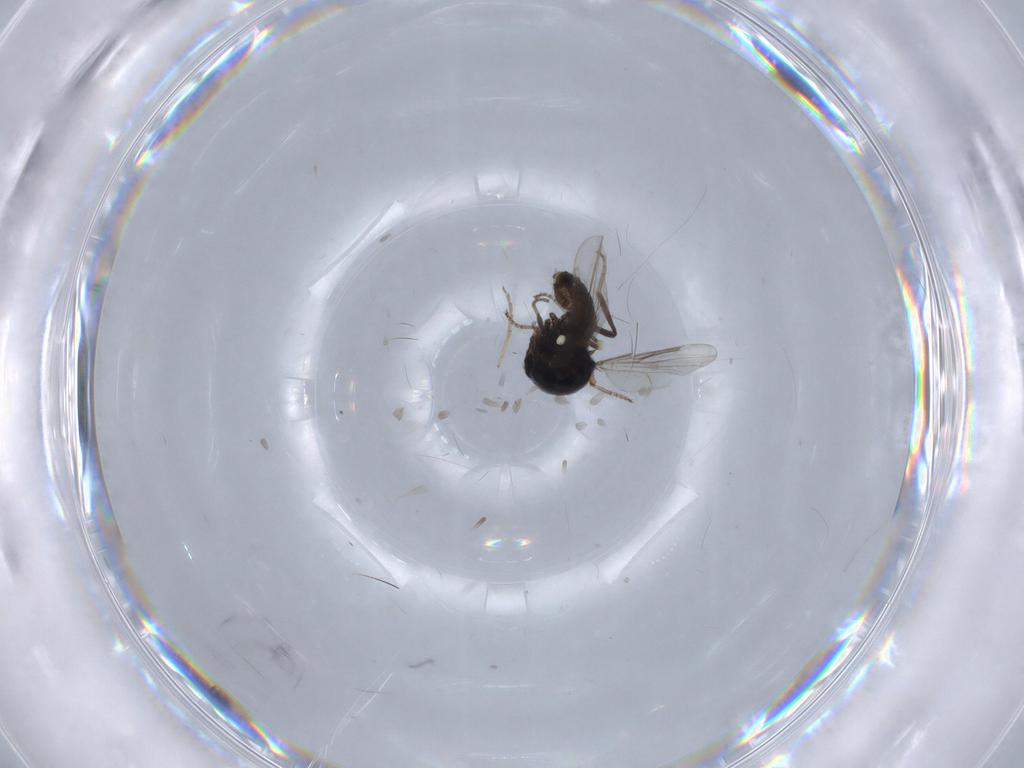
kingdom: Animalia
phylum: Arthropoda
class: Insecta
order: Diptera
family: Ceratopogonidae
